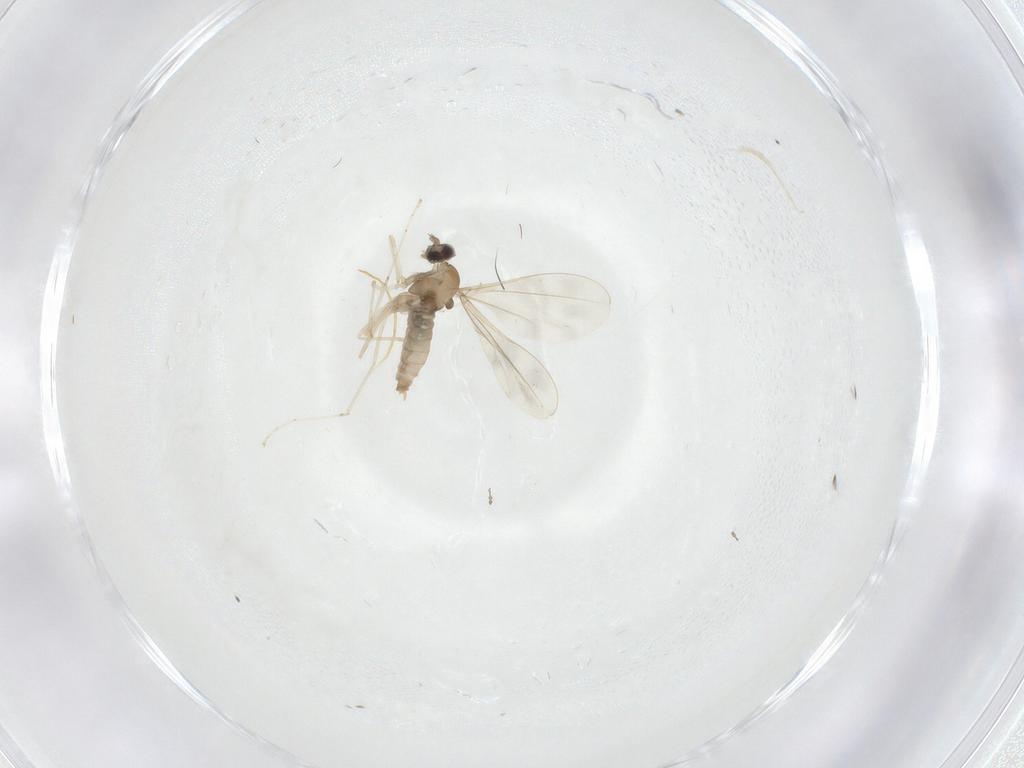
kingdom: Animalia
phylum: Arthropoda
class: Insecta
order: Diptera
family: Cecidomyiidae
